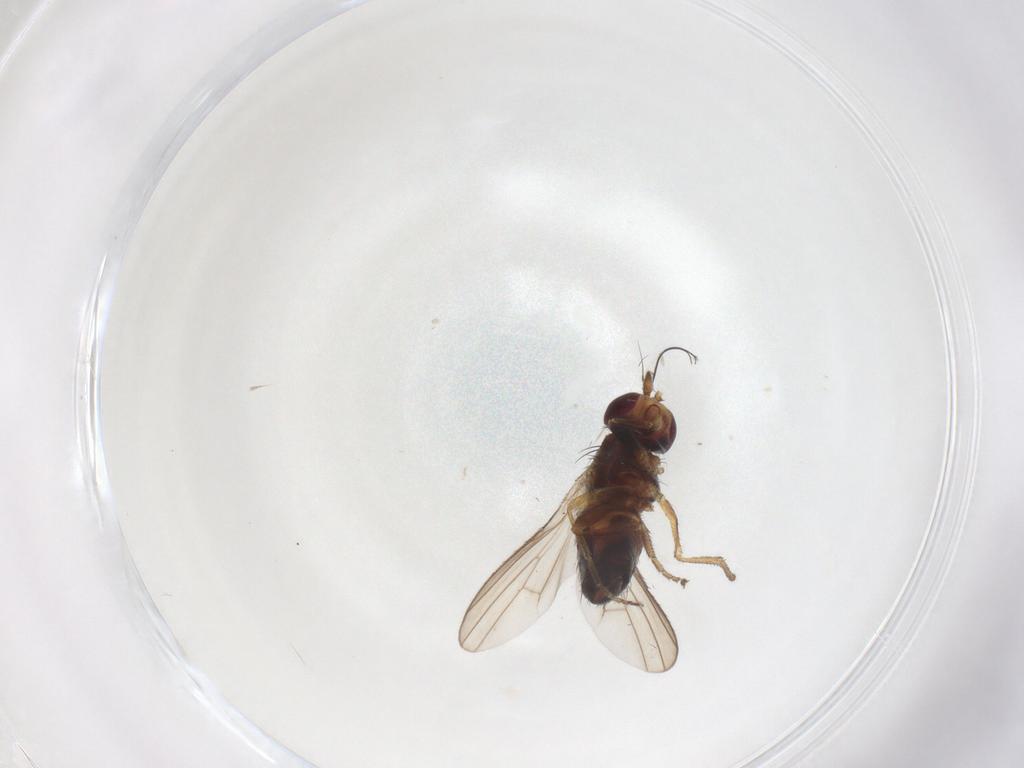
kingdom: Animalia
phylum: Arthropoda
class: Insecta
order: Diptera
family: Heleomyzidae
